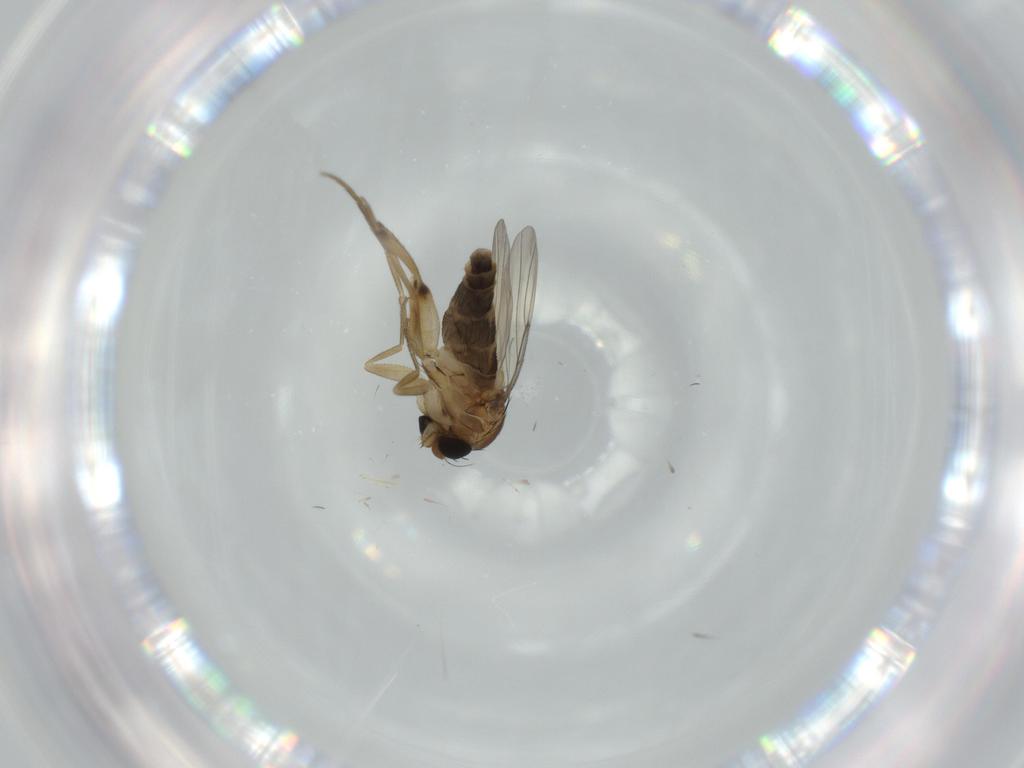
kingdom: Animalia
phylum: Arthropoda
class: Insecta
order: Diptera
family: Phoridae
